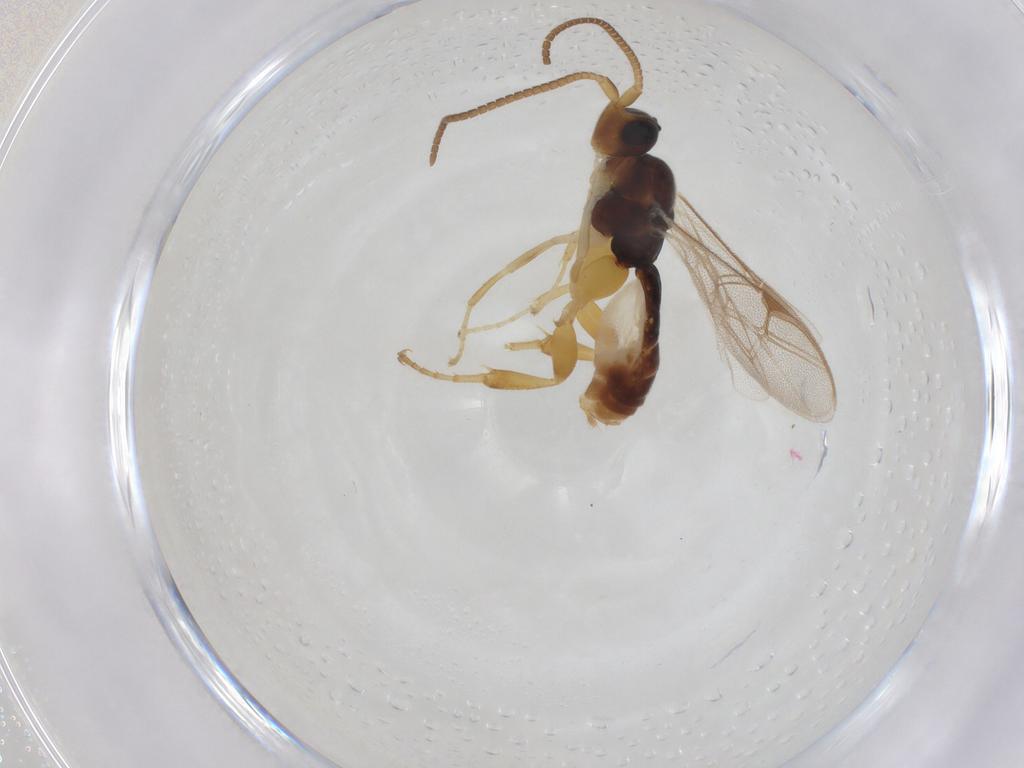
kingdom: Animalia
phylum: Arthropoda
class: Insecta
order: Hymenoptera
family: Ichneumonidae
